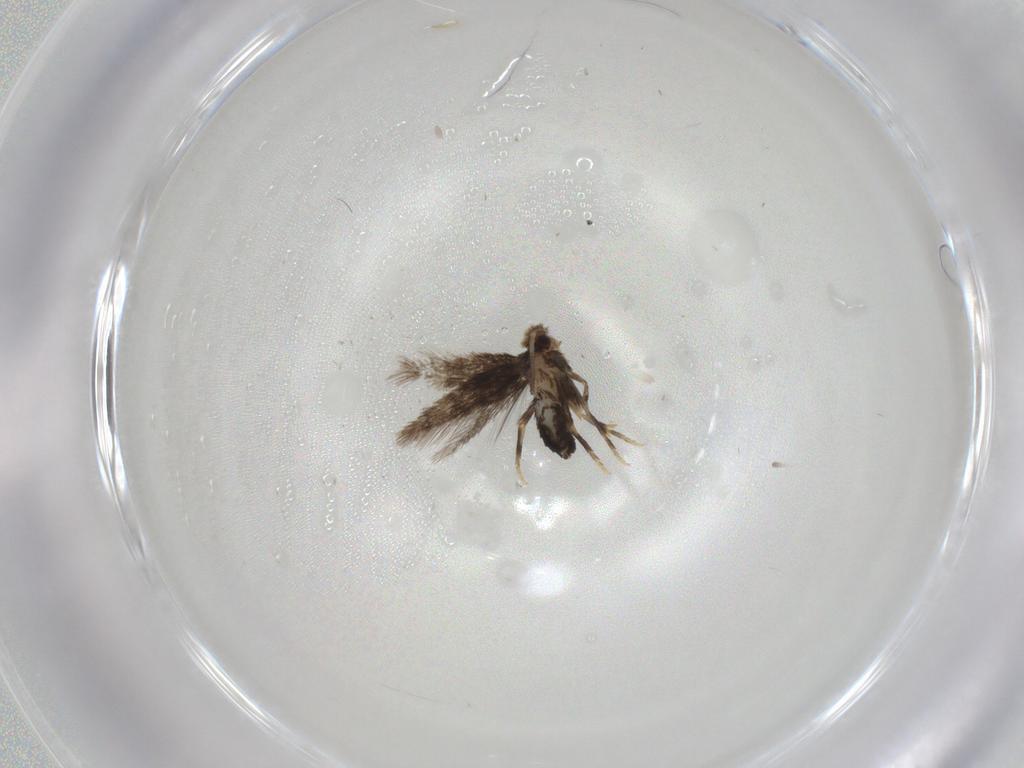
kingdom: Animalia
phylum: Arthropoda
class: Insecta
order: Lepidoptera
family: Nepticulidae
